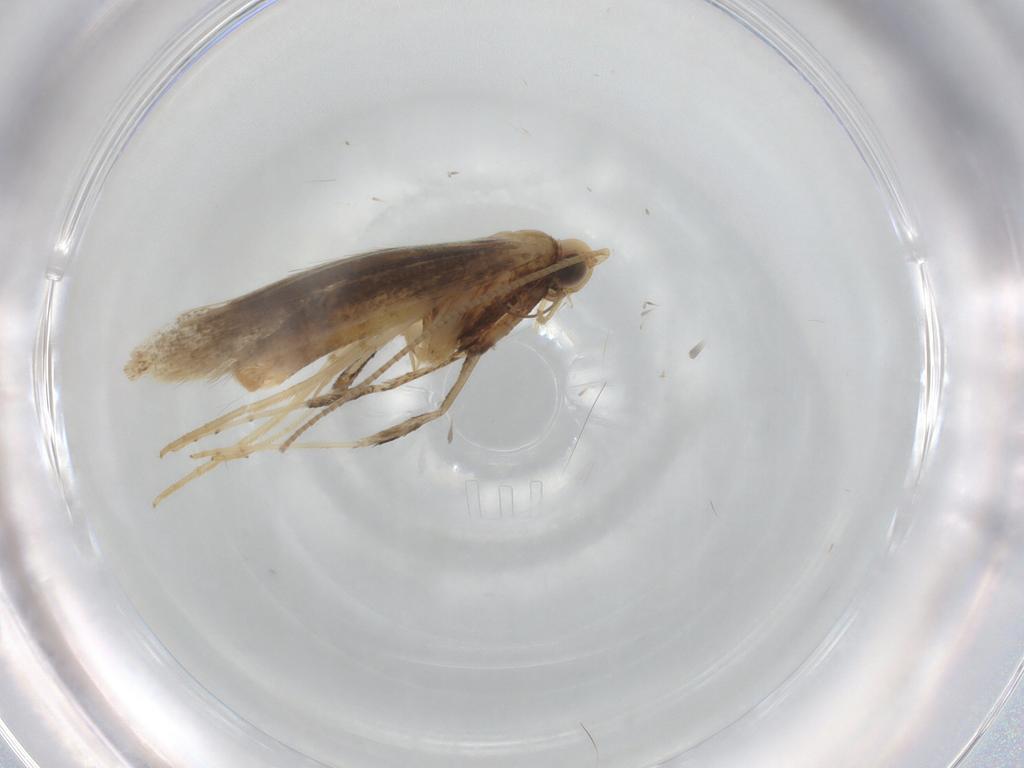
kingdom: Animalia
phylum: Arthropoda
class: Insecta
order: Lepidoptera
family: Gracillariidae
